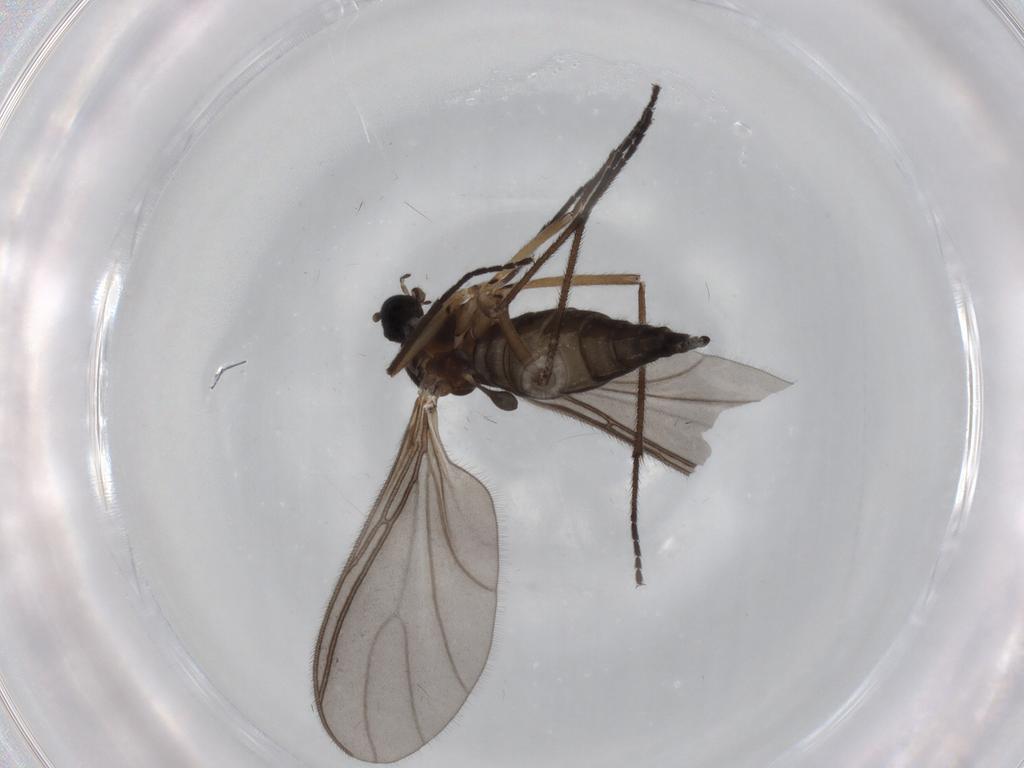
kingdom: Animalia
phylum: Arthropoda
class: Insecta
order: Diptera
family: Sciaridae
